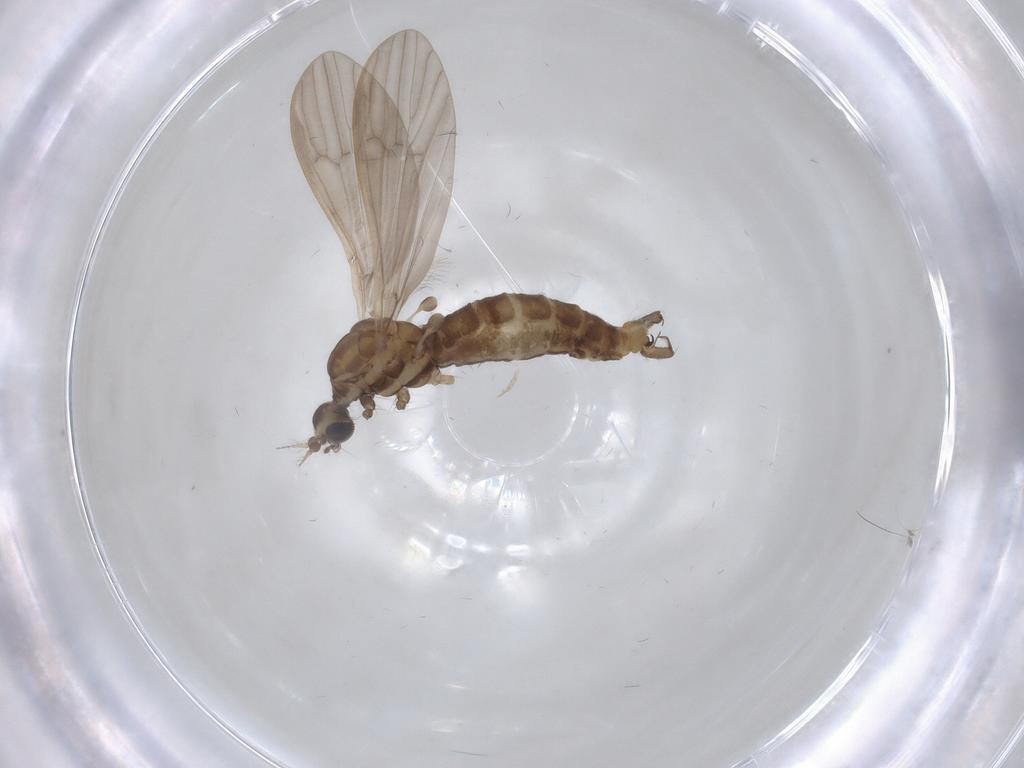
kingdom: Animalia
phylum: Arthropoda
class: Insecta
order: Diptera
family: Limoniidae
